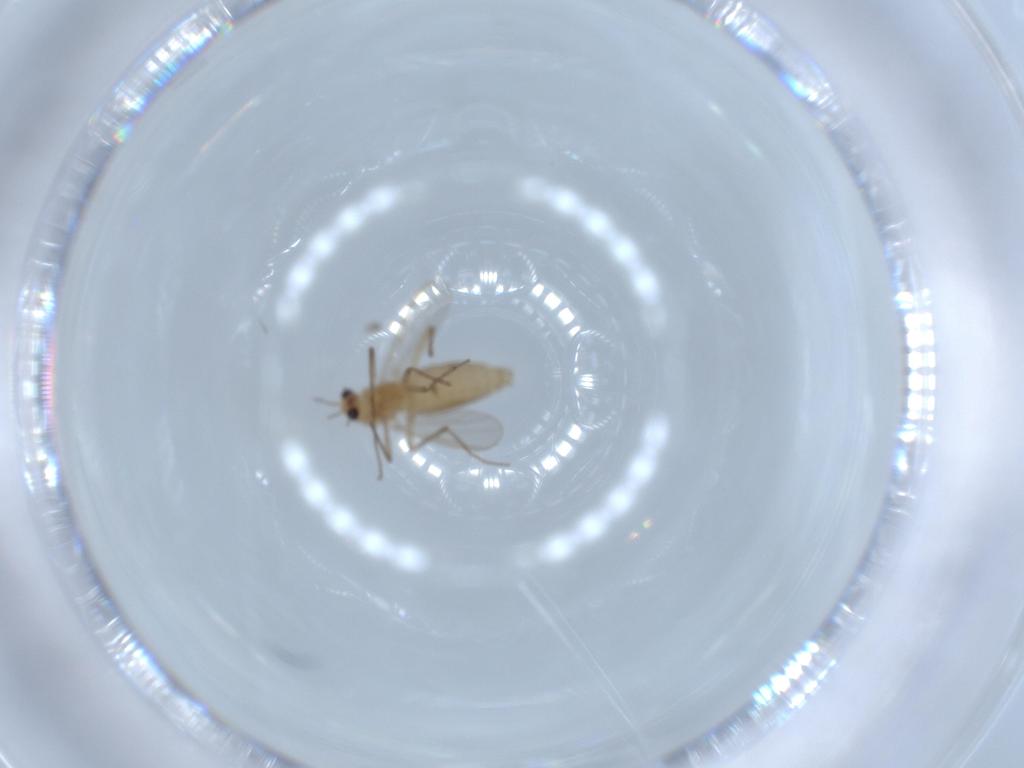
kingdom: Animalia
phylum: Arthropoda
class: Insecta
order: Diptera
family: Chironomidae
